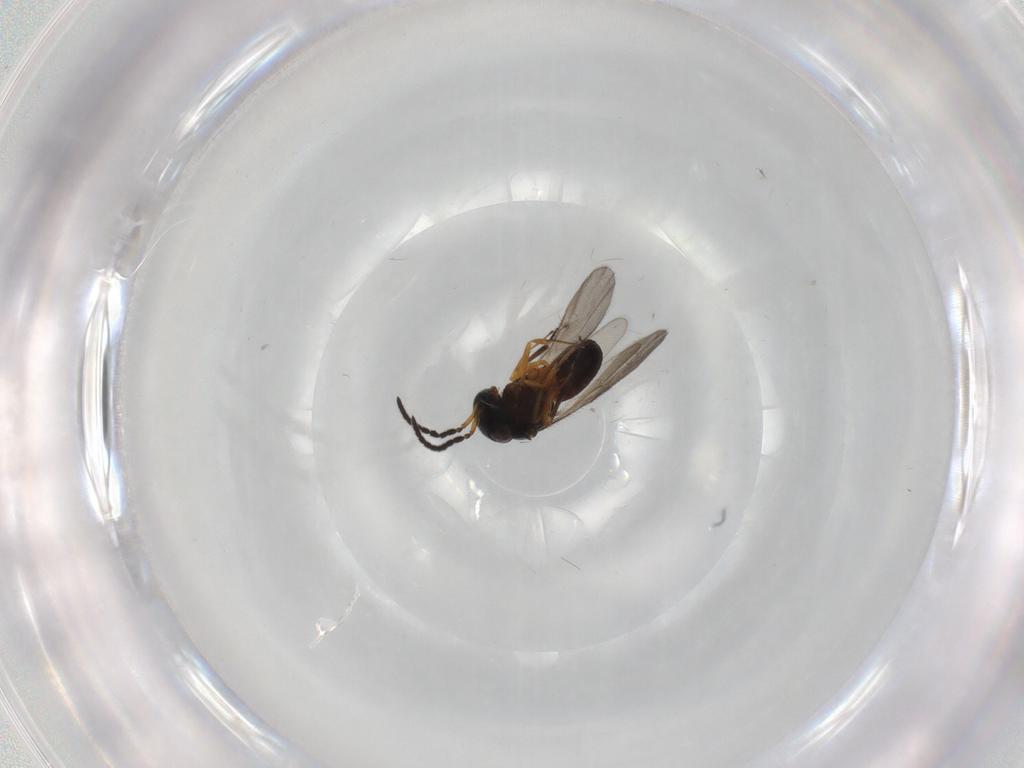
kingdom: Animalia
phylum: Arthropoda
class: Insecta
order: Hymenoptera
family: Scelionidae
